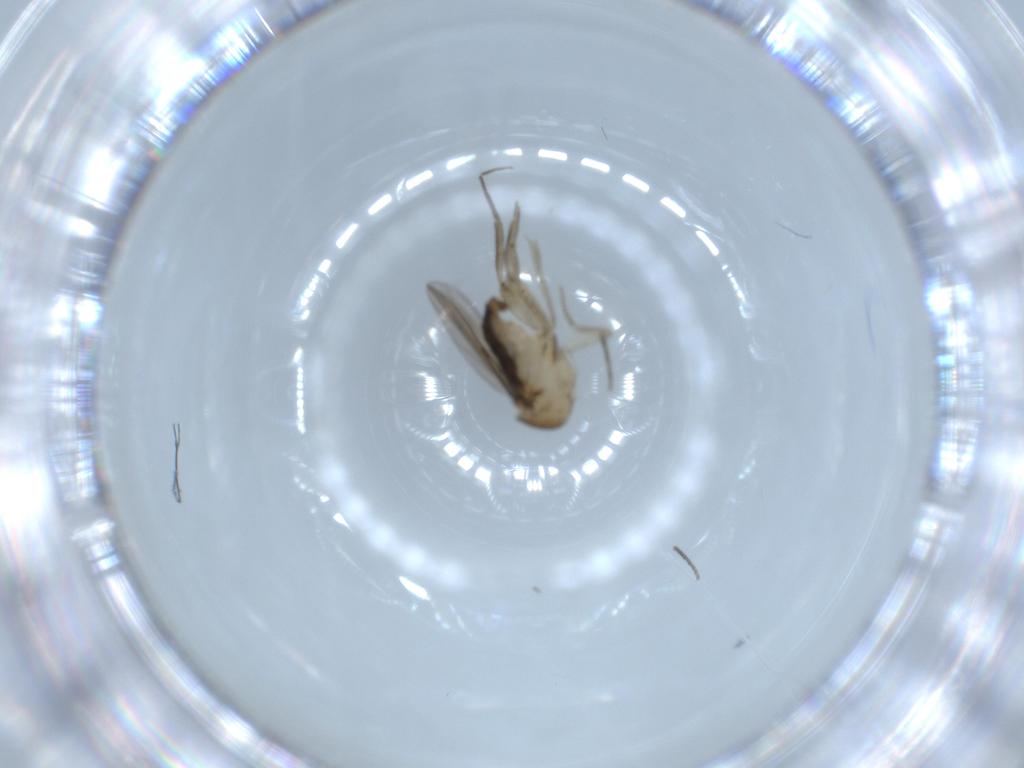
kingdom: Animalia
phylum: Arthropoda
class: Insecta
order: Diptera
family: Phoridae
